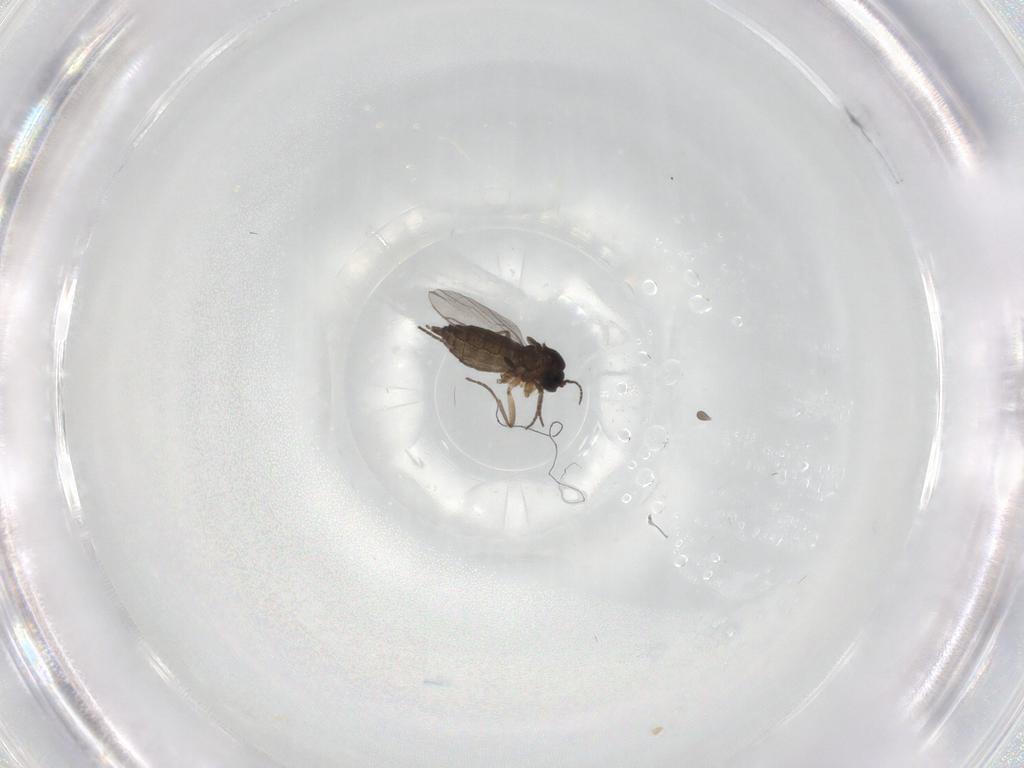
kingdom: Animalia
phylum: Arthropoda
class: Insecta
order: Diptera
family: Sciaridae
